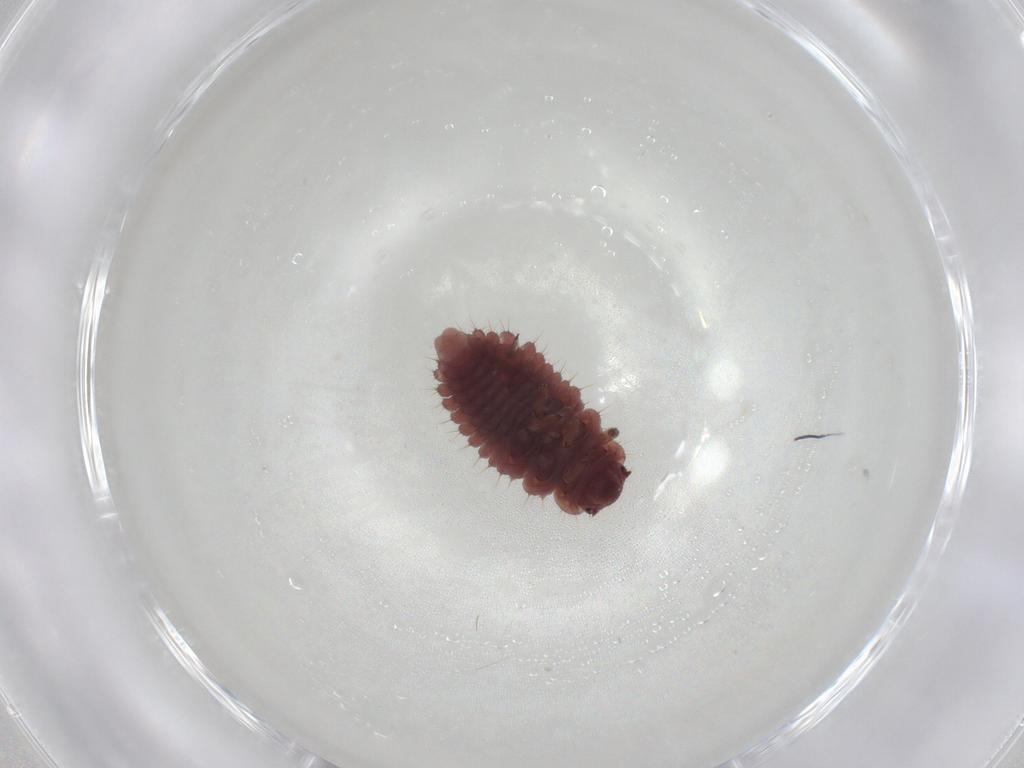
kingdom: Animalia
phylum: Arthropoda
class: Insecta
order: Coleoptera
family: Coccinellidae
